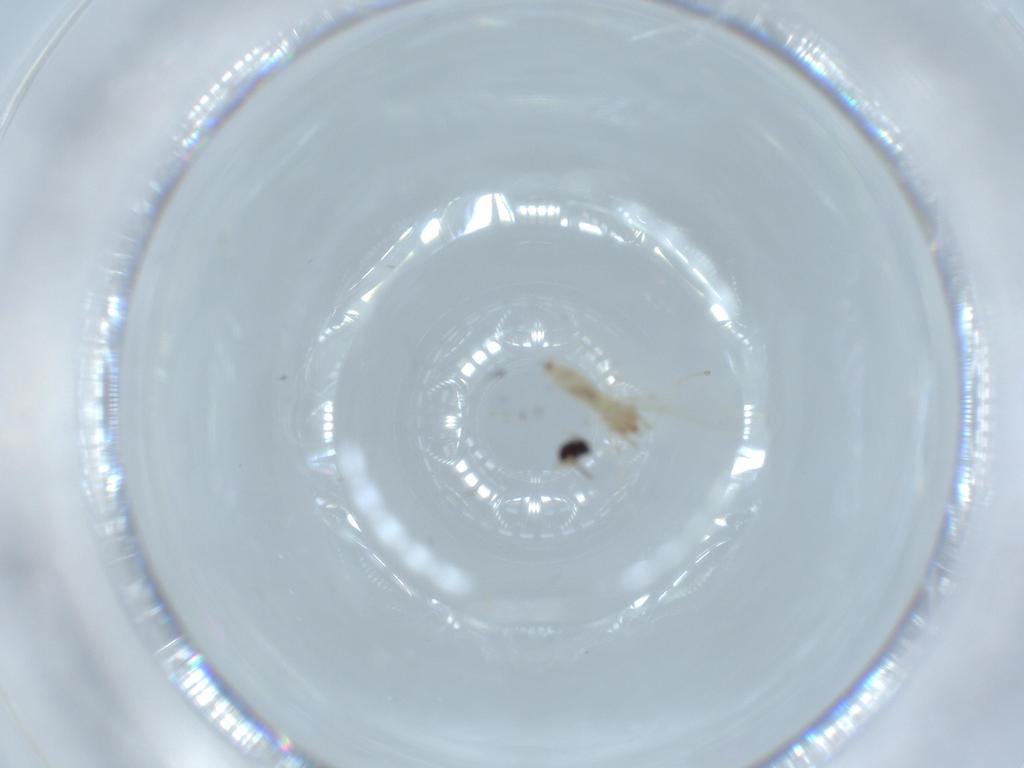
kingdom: Animalia
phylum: Arthropoda
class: Insecta
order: Diptera
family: Cecidomyiidae
